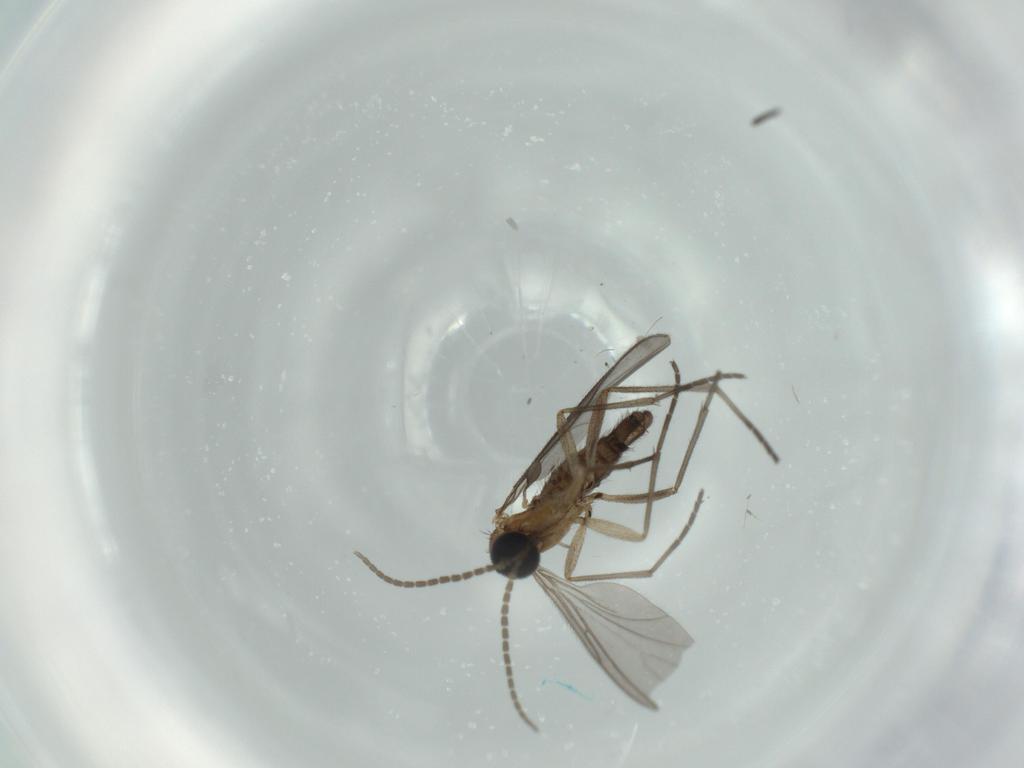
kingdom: Animalia
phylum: Arthropoda
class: Insecta
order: Diptera
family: Sciaridae
